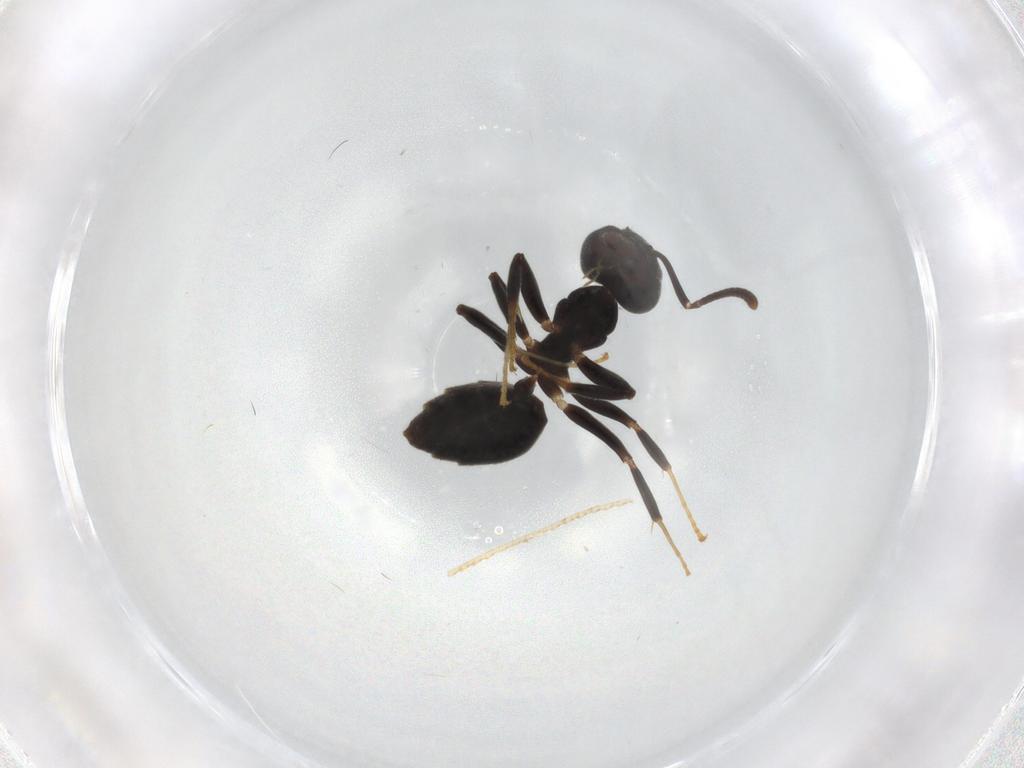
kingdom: Animalia
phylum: Arthropoda
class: Insecta
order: Hymenoptera
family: Formicidae
